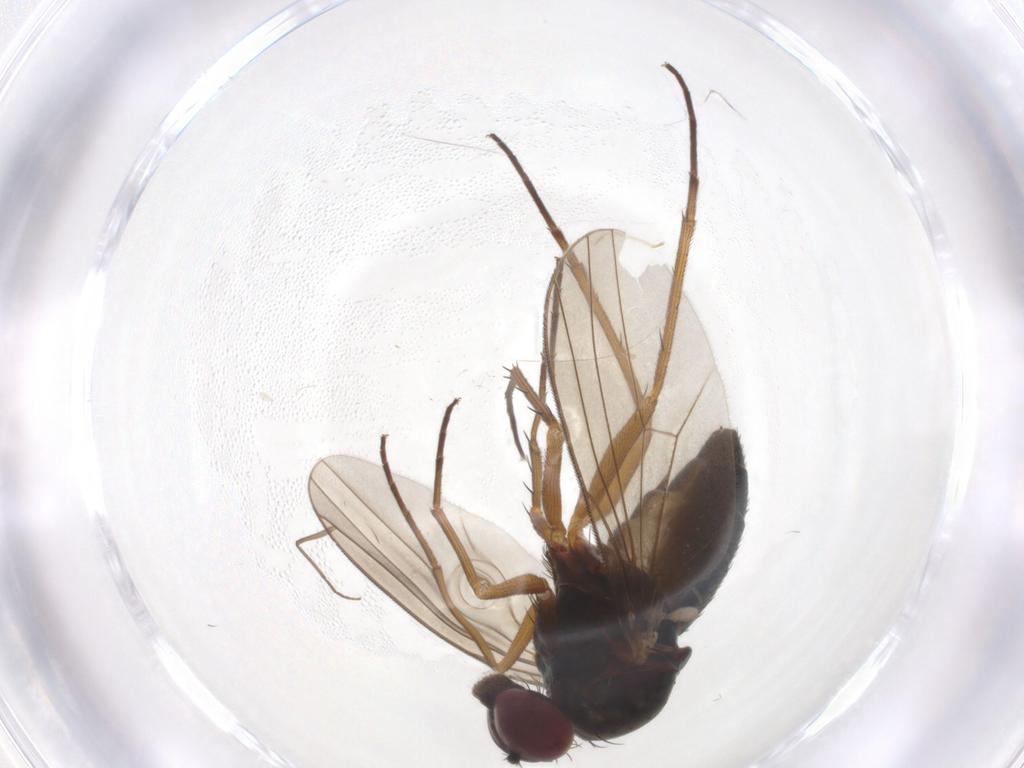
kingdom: Animalia
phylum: Arthropoda
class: Insecta
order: Diptera
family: Dolichopodidae
